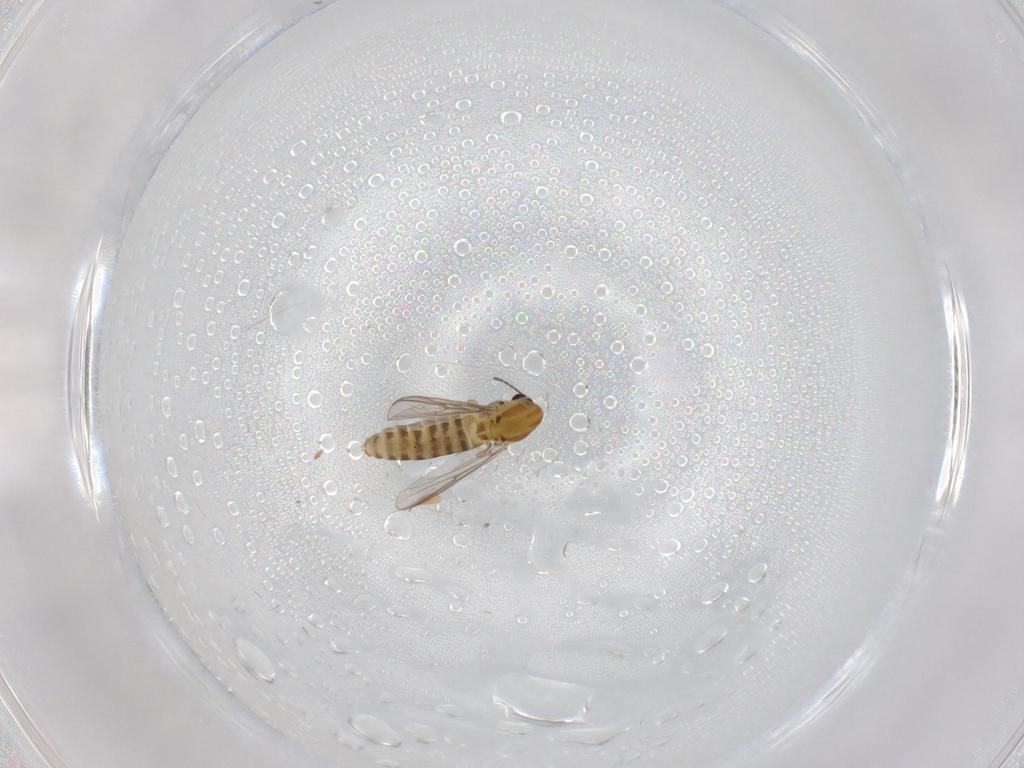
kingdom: Animalia
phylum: Arthropoda
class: Insecta
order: Diptera
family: Chironomidae
